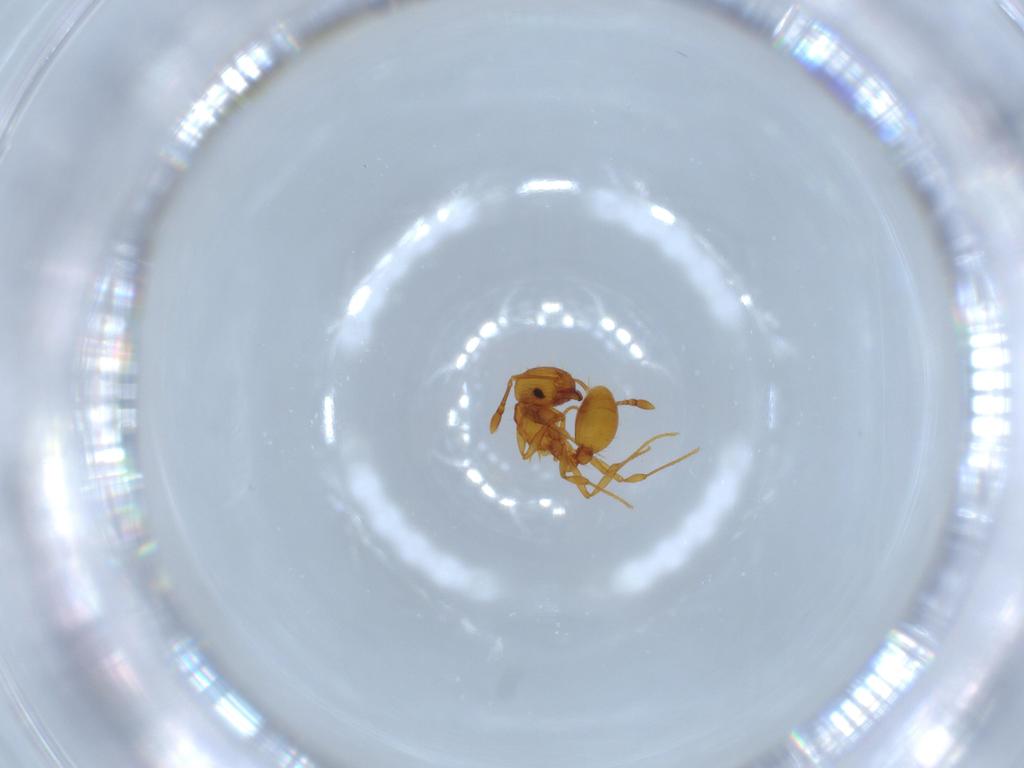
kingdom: Animalia
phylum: Arthropoda
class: Insecta
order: Hymenoptera
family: Formicidae
